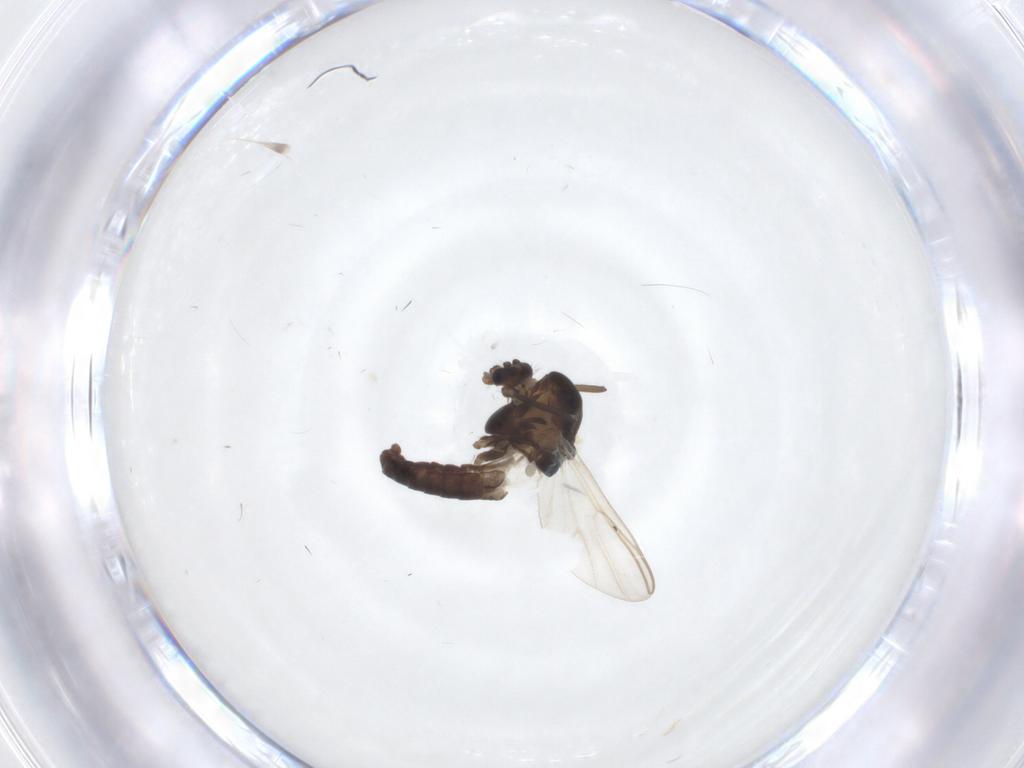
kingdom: Animalia
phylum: Arthropoda
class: Insecta
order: Diptera
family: Chironomidae
